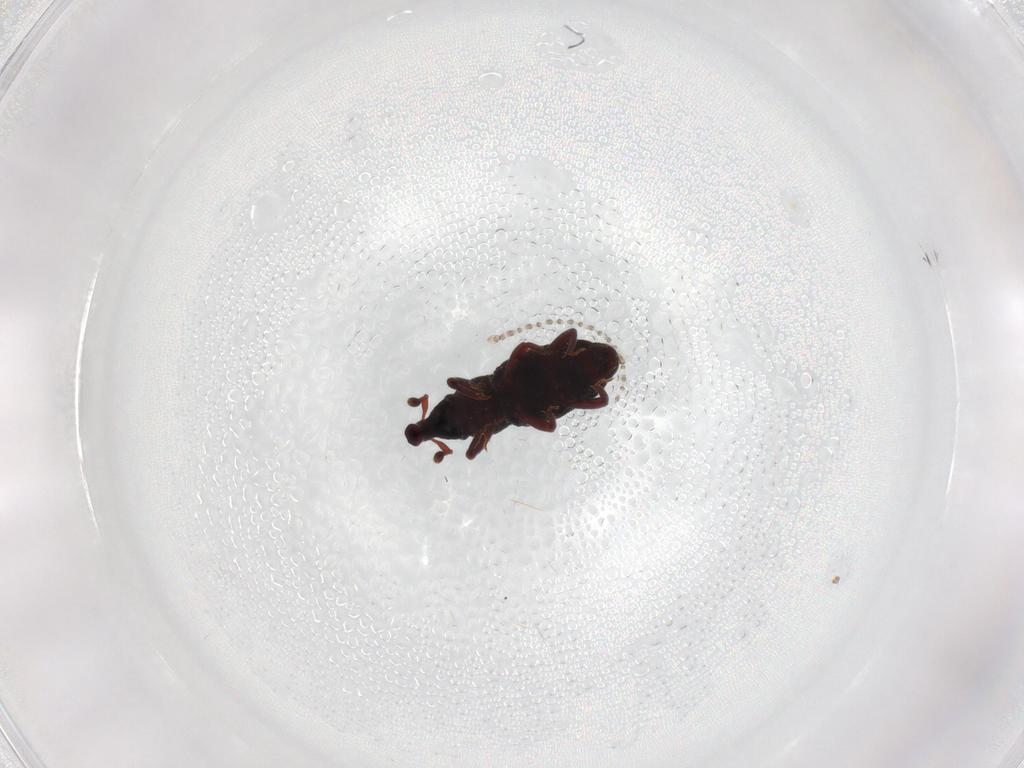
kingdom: Animalia
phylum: Arthropoda
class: Insecta
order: Coleoptera
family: Curculionidae
